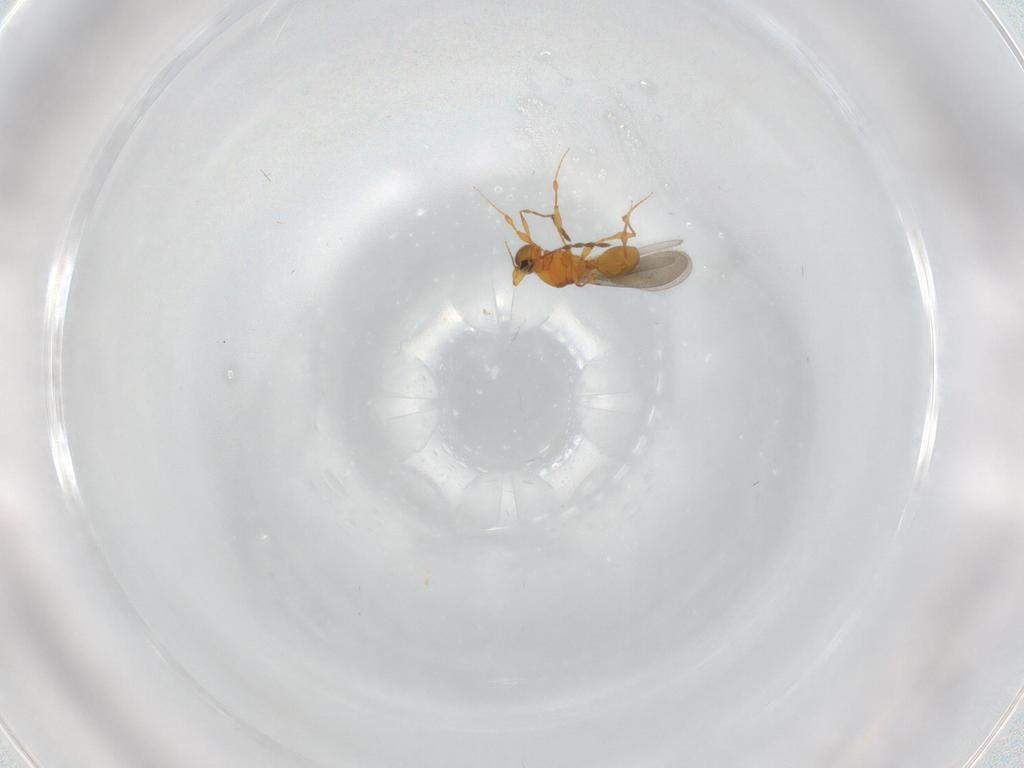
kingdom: Animalia
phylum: Arthropoda
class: Insecta
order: Hymenoptera
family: Platygastridae
